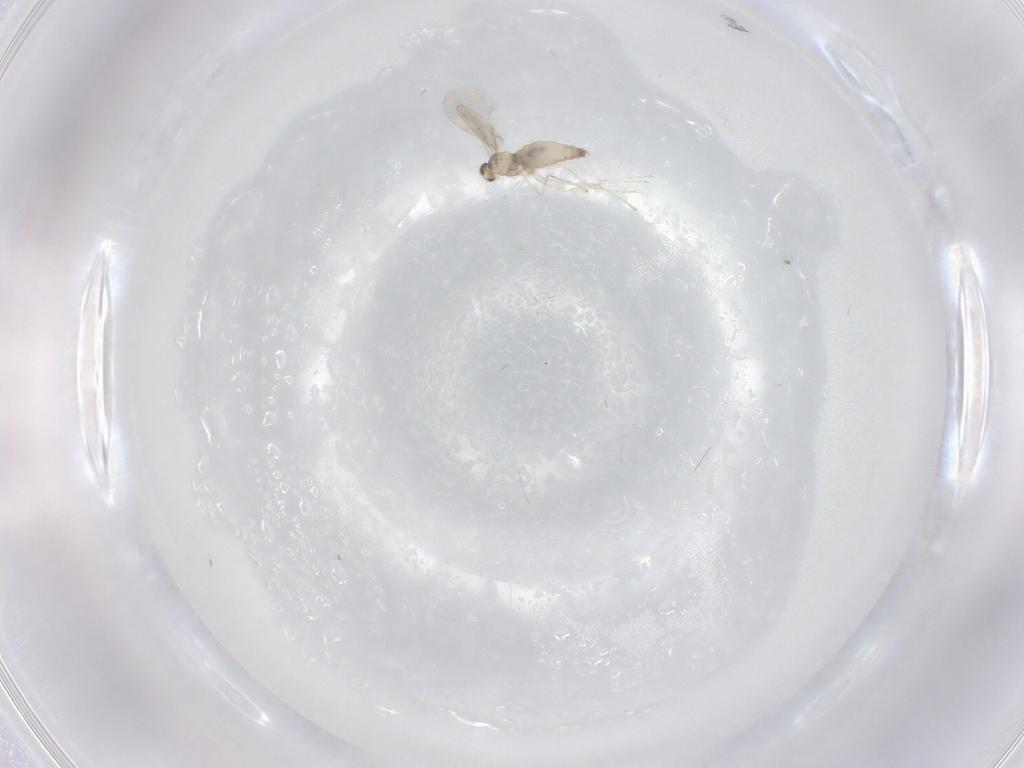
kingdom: Animalia
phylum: Arthropoda
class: Insecta
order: Diptera
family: Cecidomyiidae
